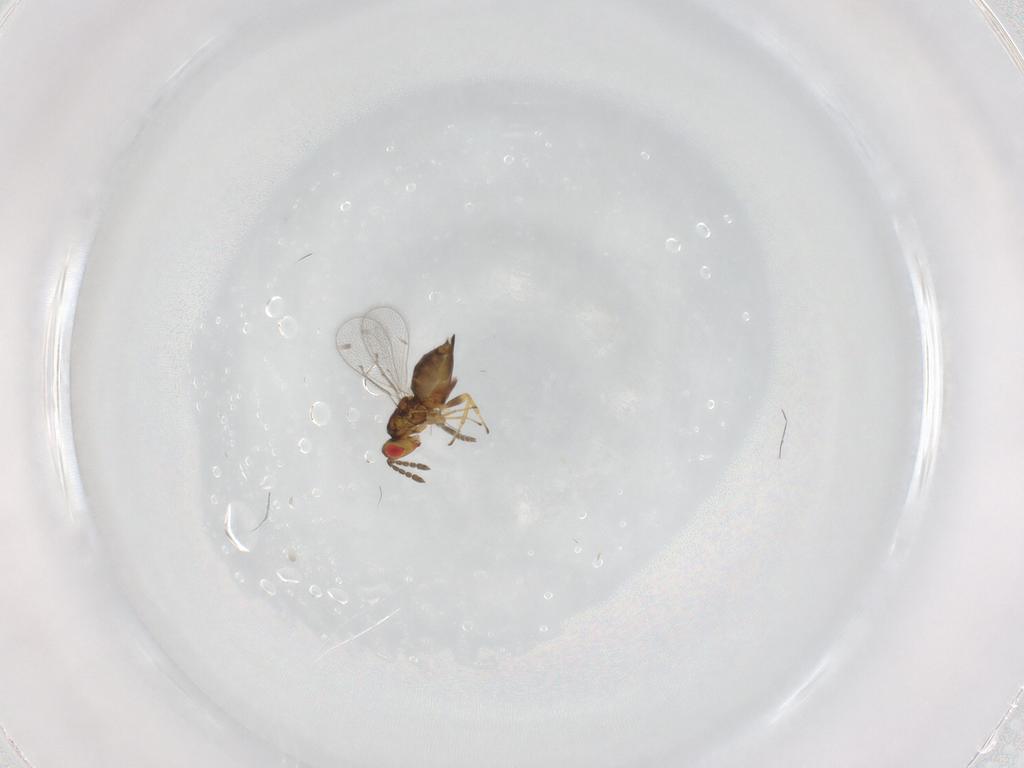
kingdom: Animalia
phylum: Arthropoda
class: Insecta
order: Hymenoptera
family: Eulophidae
